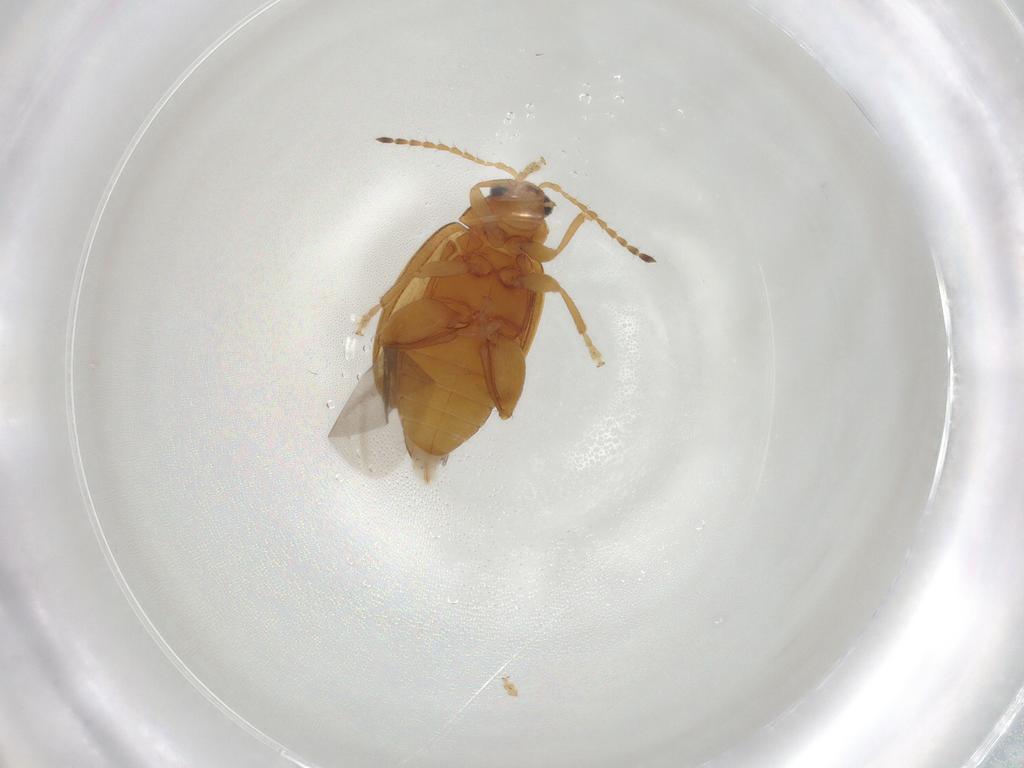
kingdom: Animalia
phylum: Arthropoda
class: Insecta
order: Coleoptera
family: Chrysomelidae
